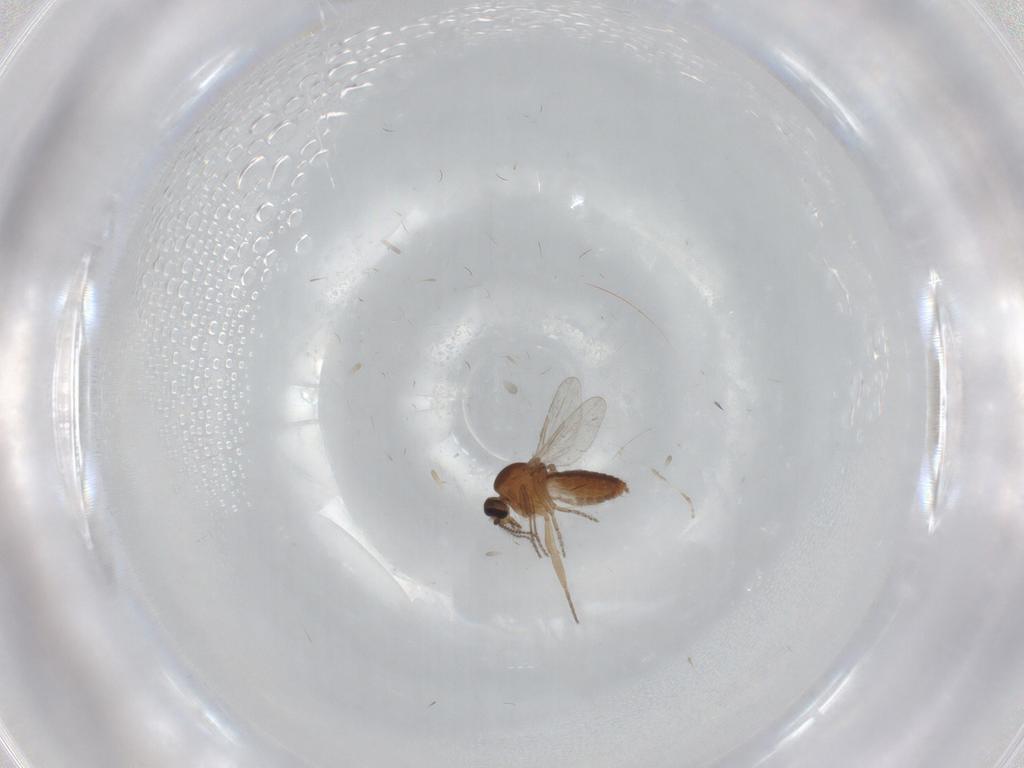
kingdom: Animalia
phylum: Arthropoda
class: Insecta
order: Diptera
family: Ceratopogonidae
